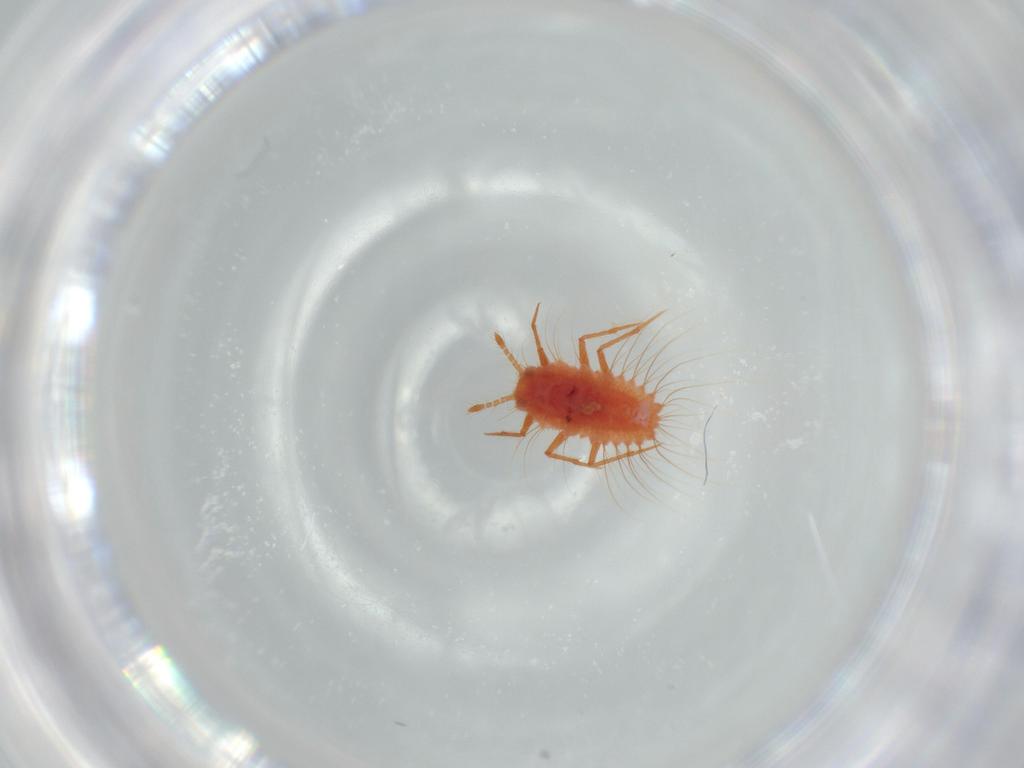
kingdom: Animalia
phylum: Arthropoda
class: Insecta
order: Hemiptera
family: Monophlebidae
